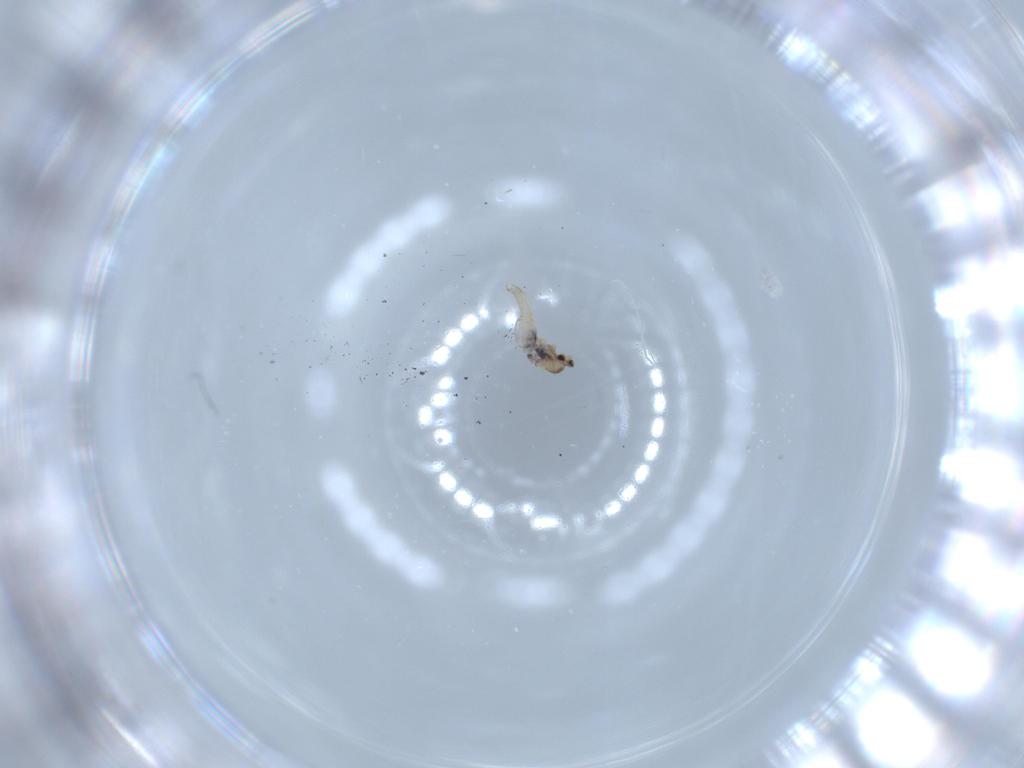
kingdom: Animalia
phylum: Arthropoda
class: Insecta
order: Diptera
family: Cecidomyiidae
